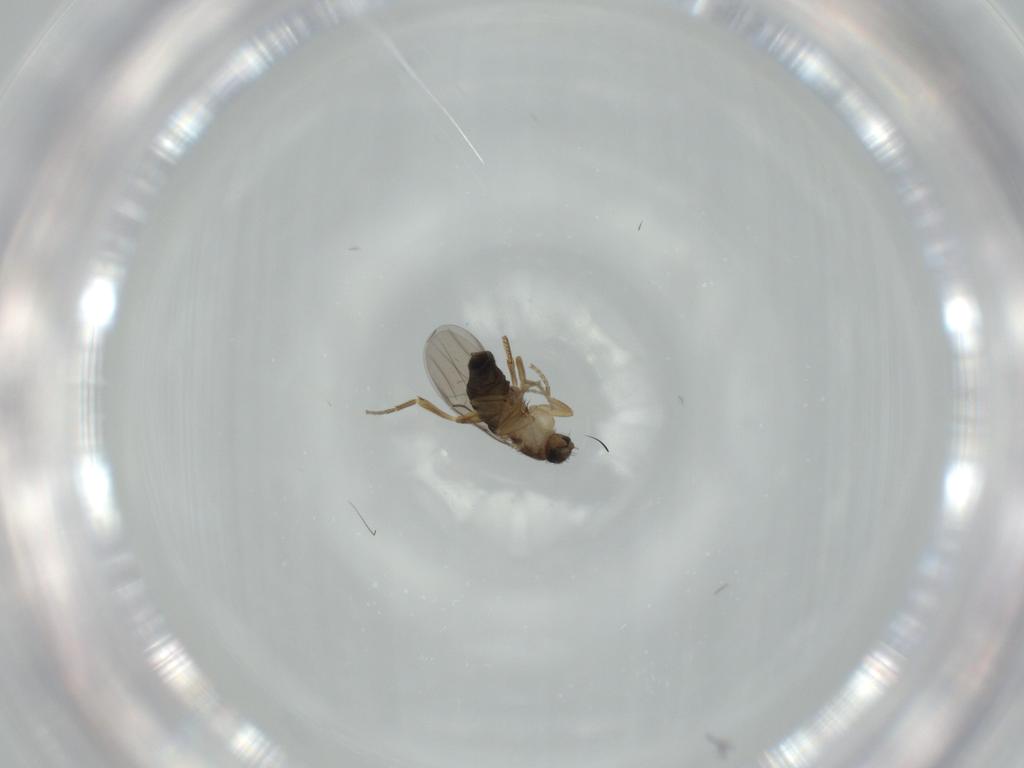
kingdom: Animalia
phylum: Arthropoda
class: Insecta
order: Diptera
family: Phoridae
